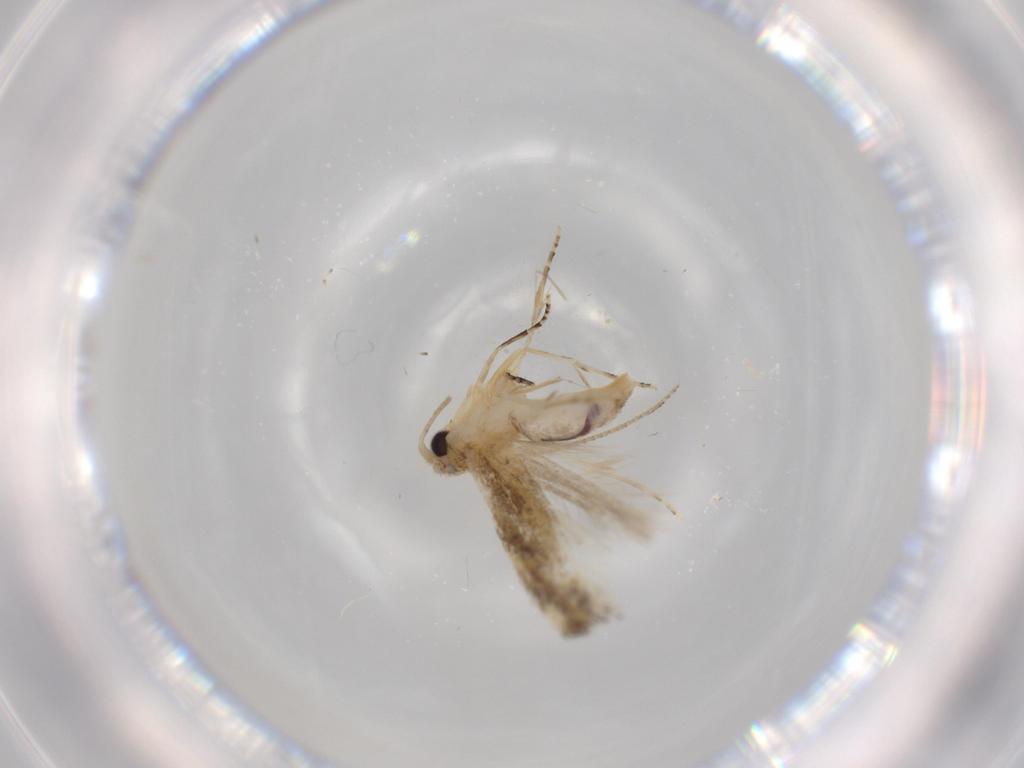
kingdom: Animalia
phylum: Arthropoda
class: Insecta
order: Lepidoptera
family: Bucculatricidae
